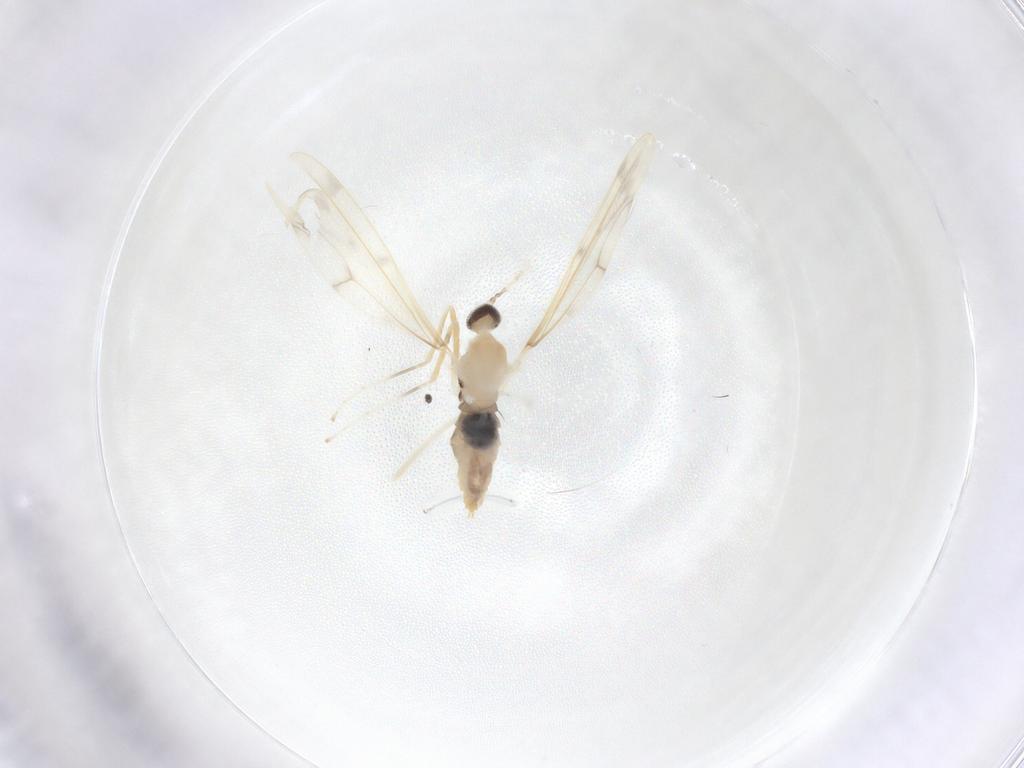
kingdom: Animalia
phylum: Arthropoda
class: Insecta
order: Diptera
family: Cecidomyiidae
